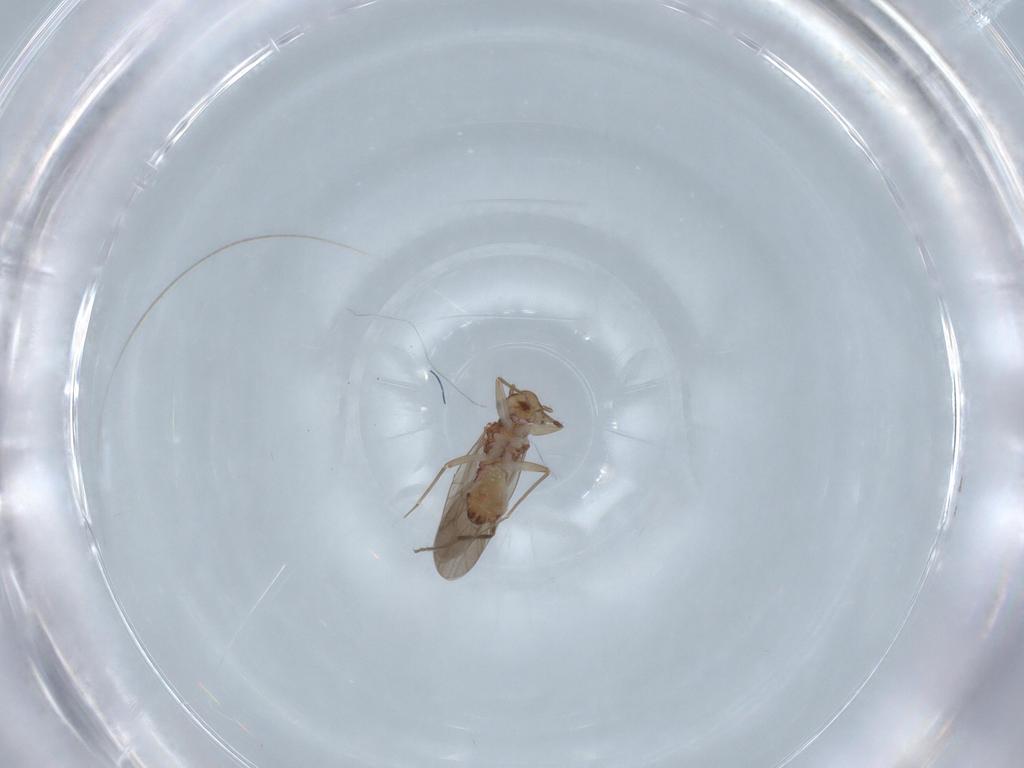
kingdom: Animalia
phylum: Arthropoda
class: Insecta
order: Psocodea
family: Lepidopsocidae
